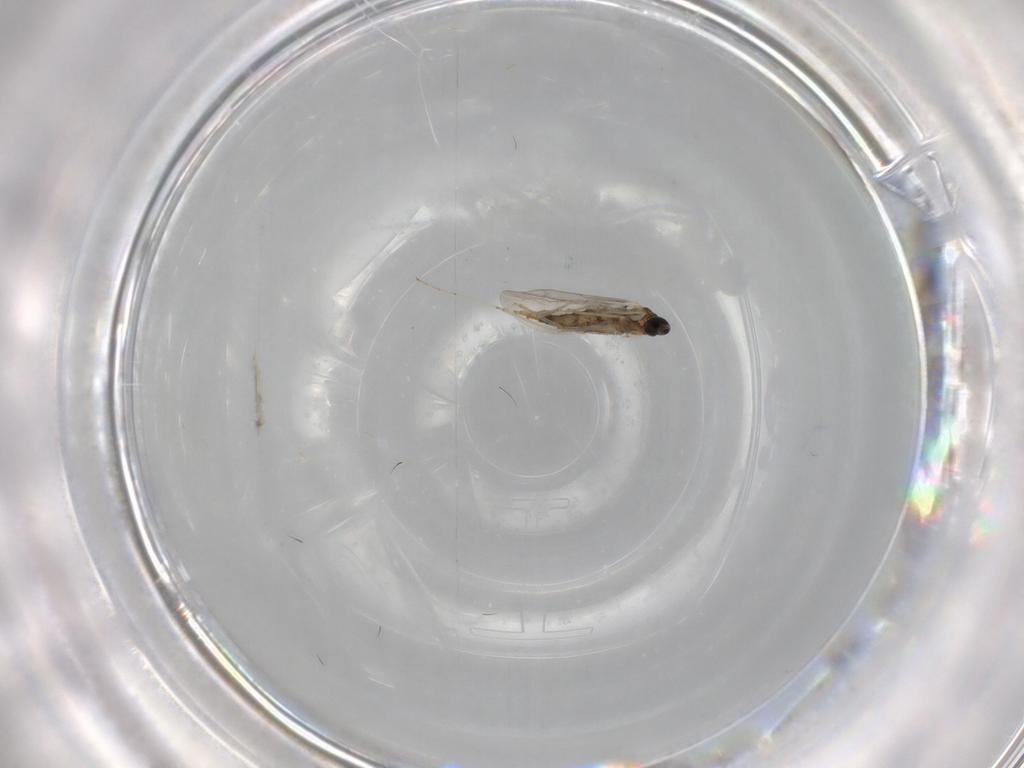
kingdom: Animalia
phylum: Arthropoda
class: Insecta
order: Diptera
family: Cecidomyiidae
